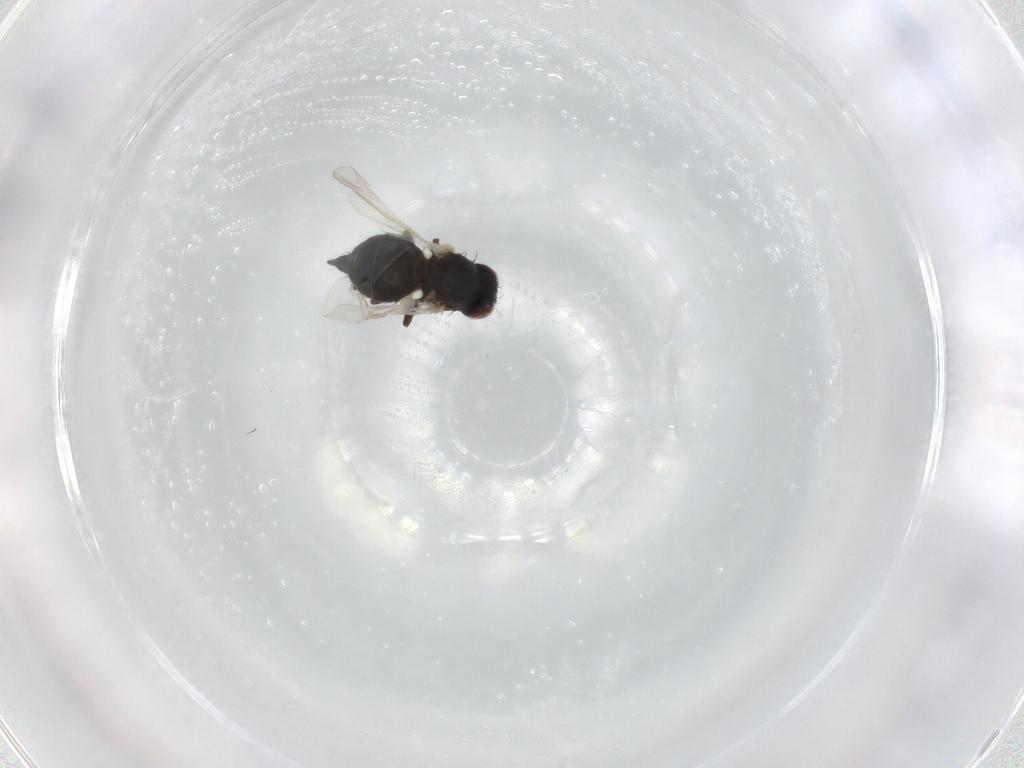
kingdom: Animalia
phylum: Arthropoda
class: Insecta
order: Diptera
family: Agromyzidae
